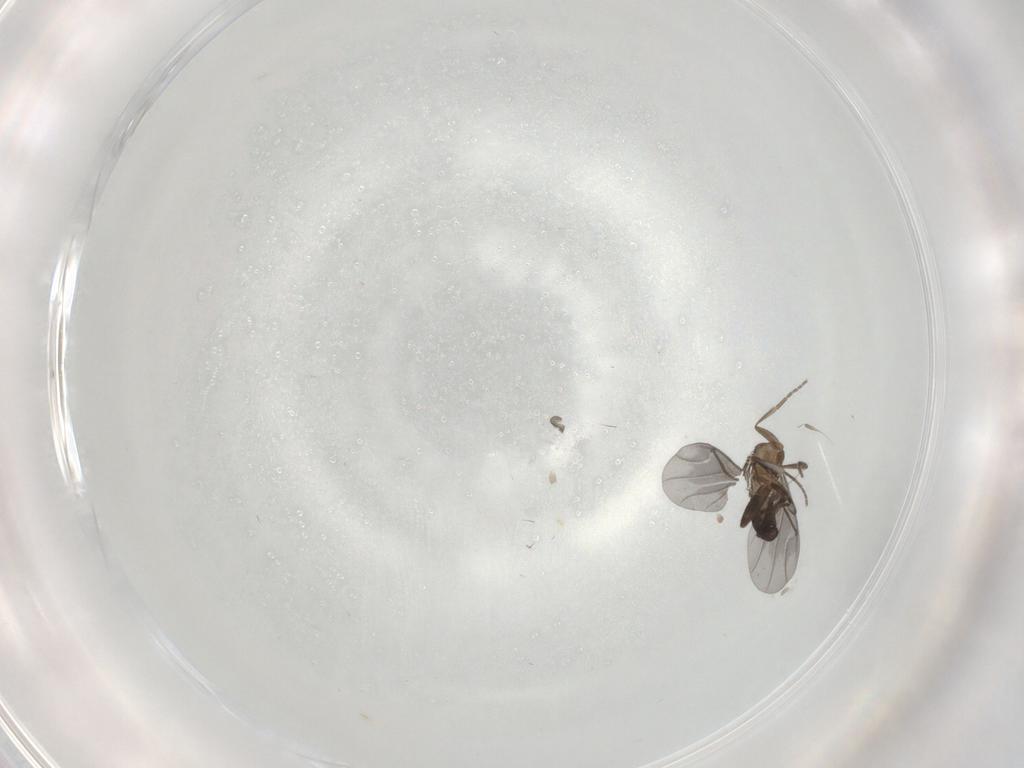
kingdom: Animalia
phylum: Arthropoda
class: Insecta
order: Diptera
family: Phoridae
